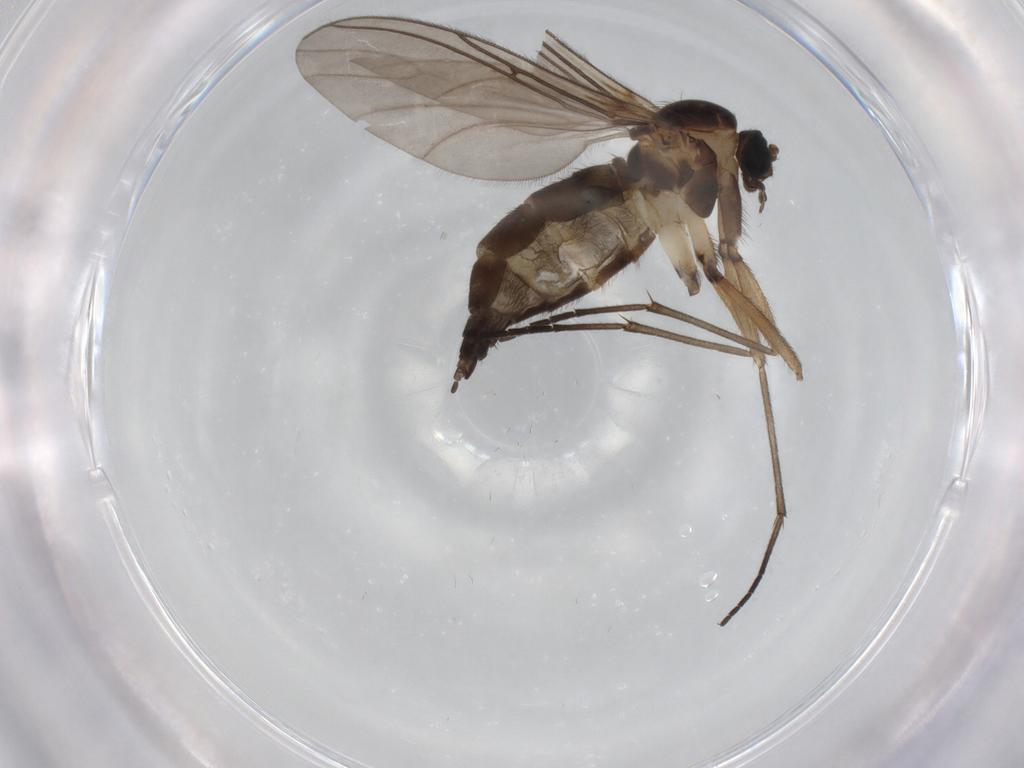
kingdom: Animalia
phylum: Arthropoda
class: Insecta
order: Diptera
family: Sciaridae
